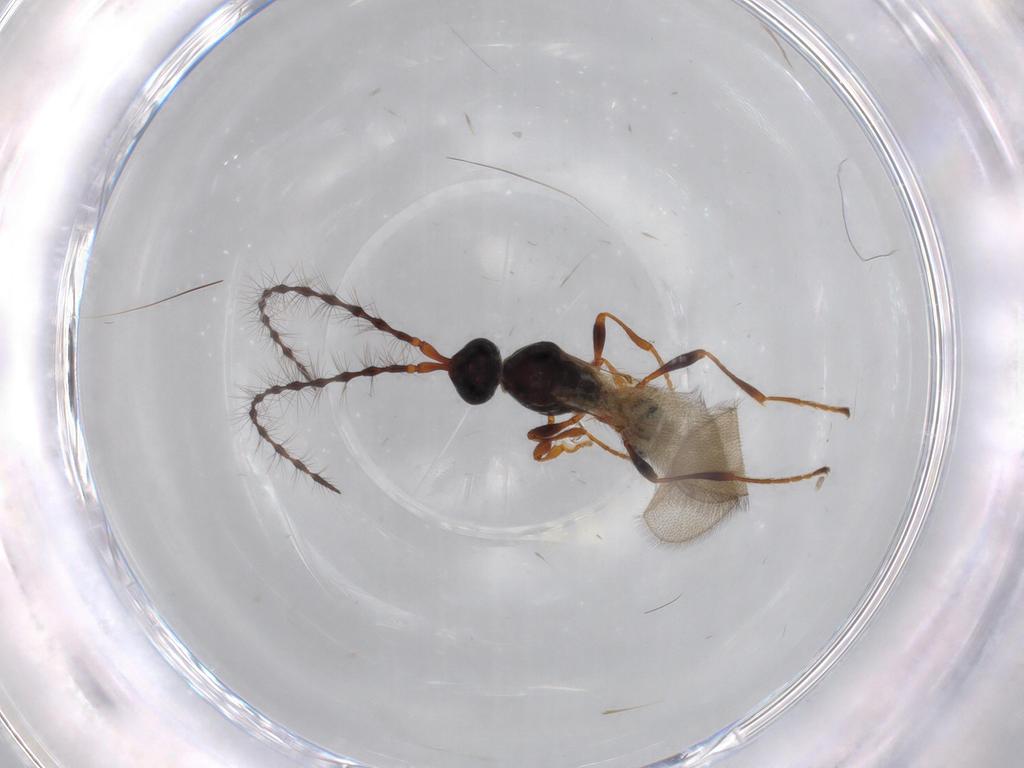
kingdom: Animalia
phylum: Arthropoda
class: Insecta
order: Hymenoptera
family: Diapriidae
